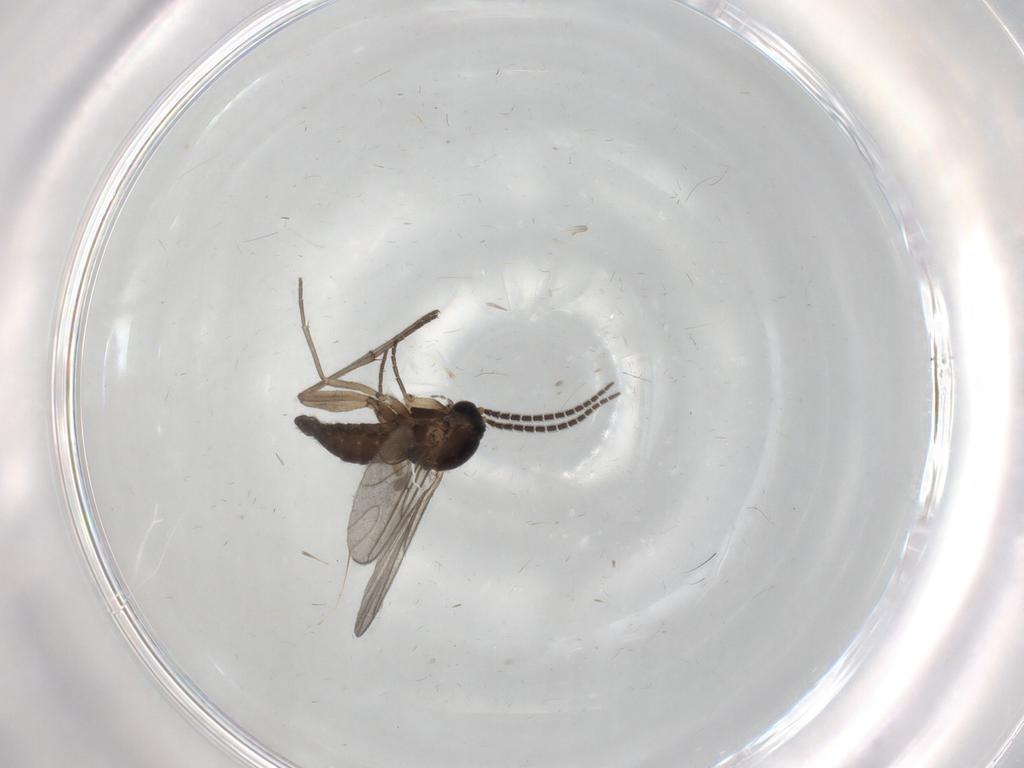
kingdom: Animalia
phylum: Arthropoda
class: Insecta
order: Diptera
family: Sciaridae
